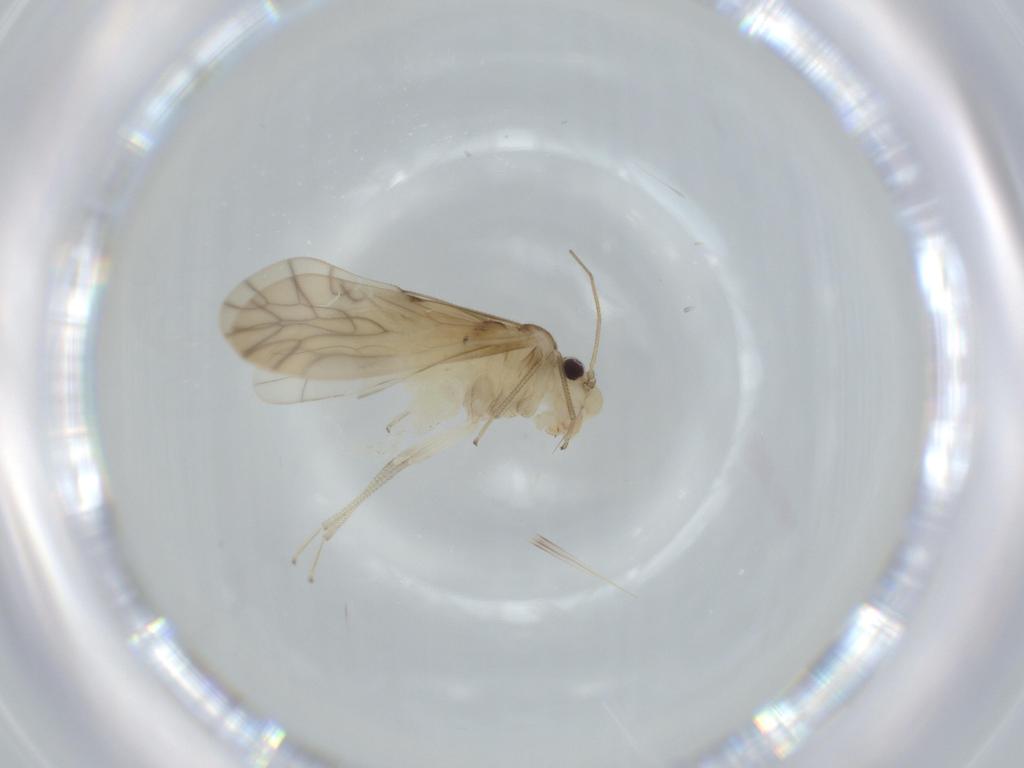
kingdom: Animalia
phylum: Arthropoda
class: Insecta
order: Psocodea
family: Caeciliusidae
